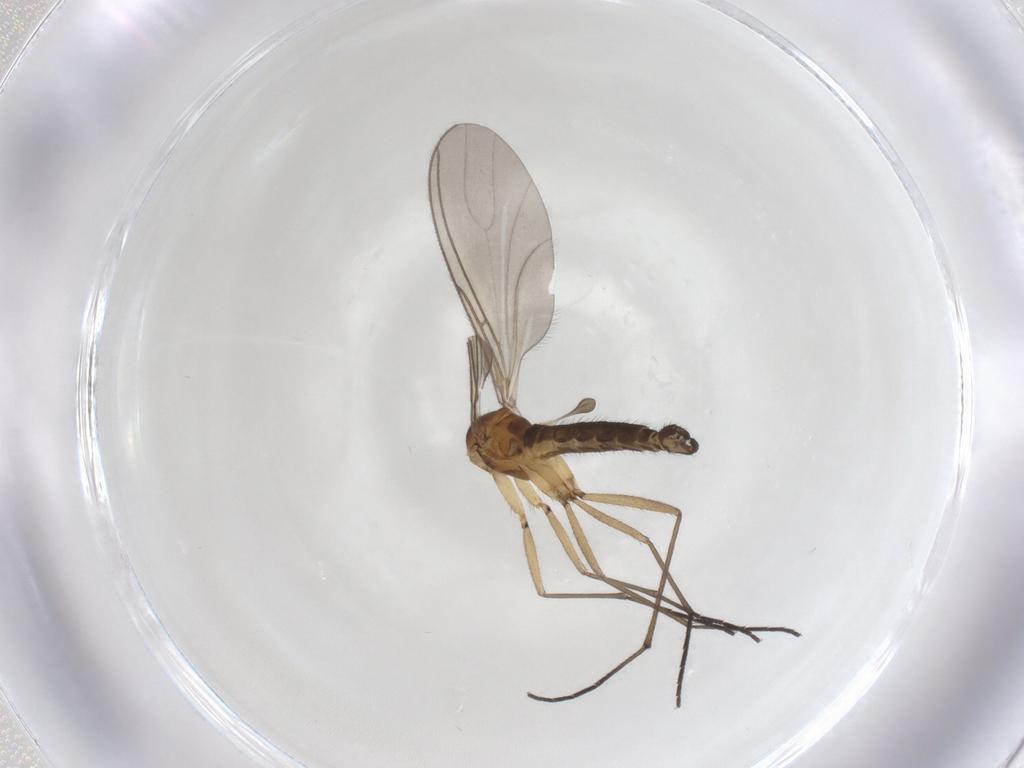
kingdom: Animalia
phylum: Arthropoda
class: Insecta
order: Diptera
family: Sciaridae
